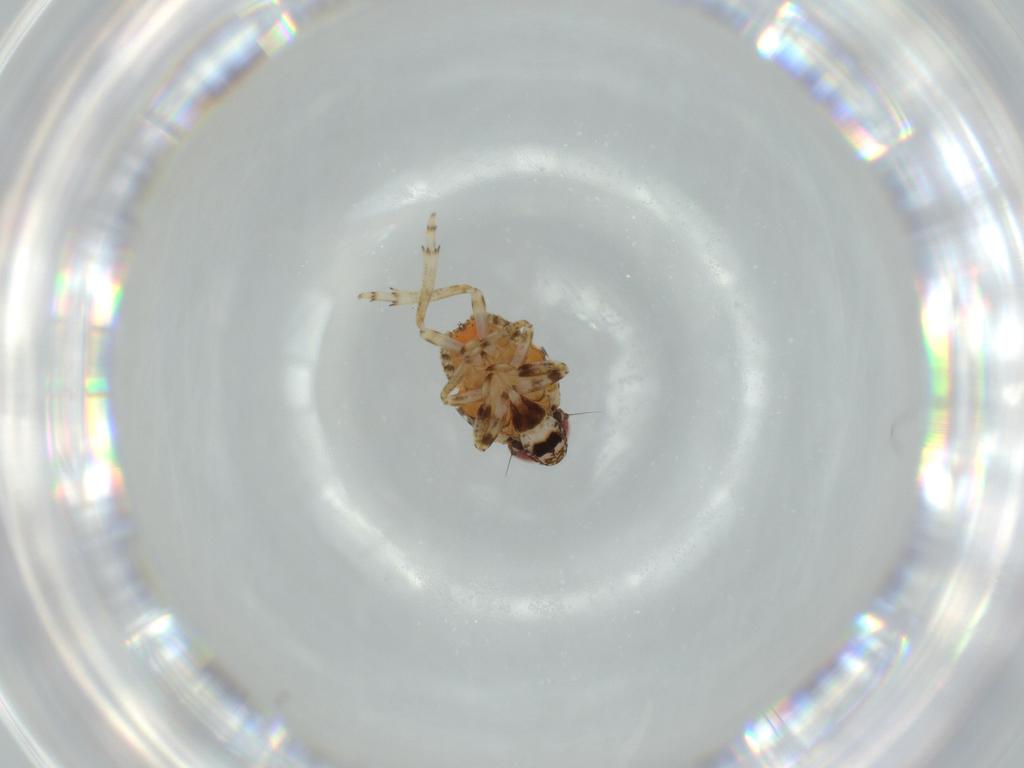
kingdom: Animalia
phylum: Arthropoda
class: Insecta
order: Hemiptera
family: Issidae
